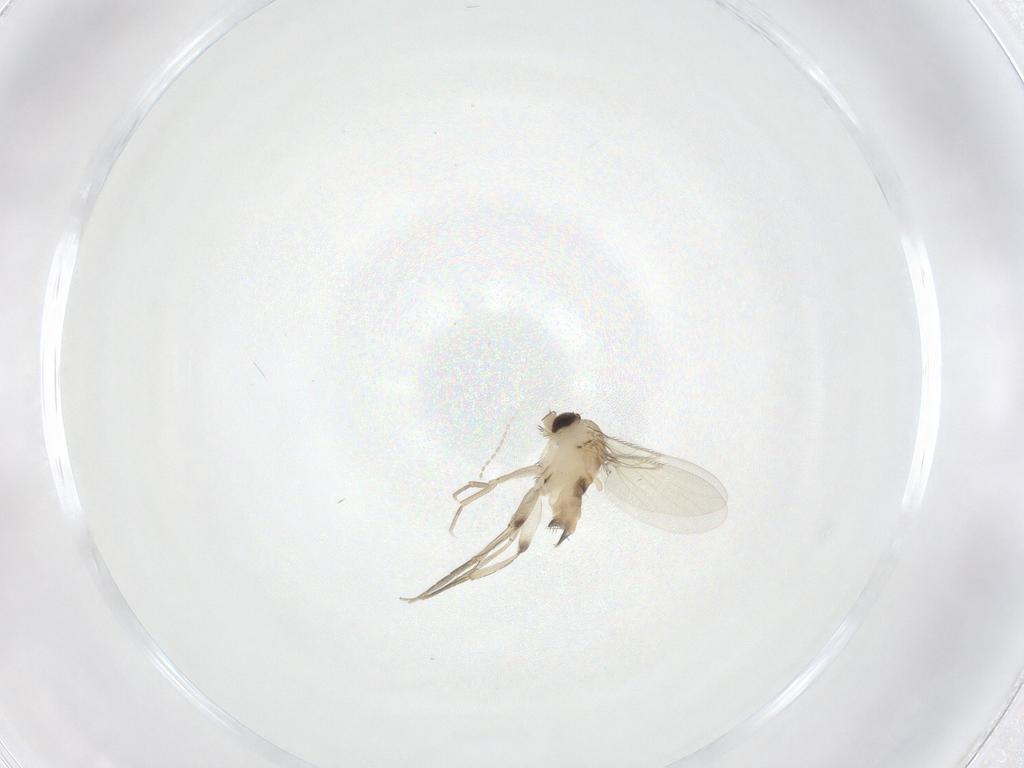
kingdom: Animalia
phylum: Arthropoda
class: Insecta
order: Diptera
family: Phoridae
